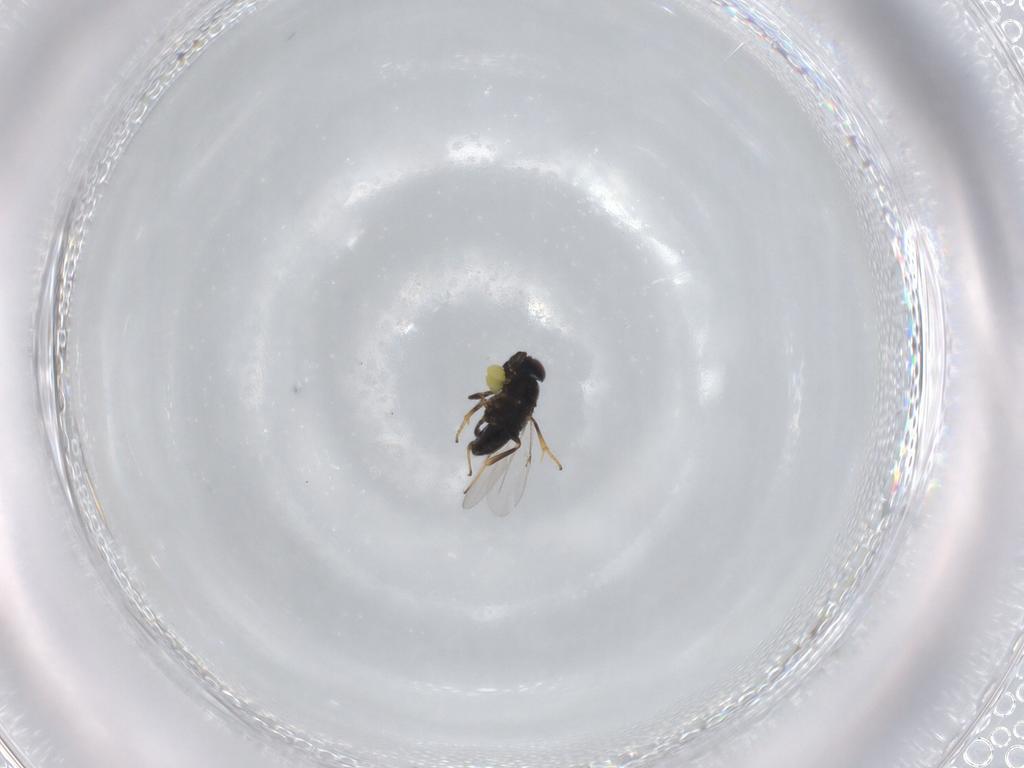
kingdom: Animalia
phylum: Arthropoda
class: Insecta
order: Hymenoptera
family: Encyrtidae
